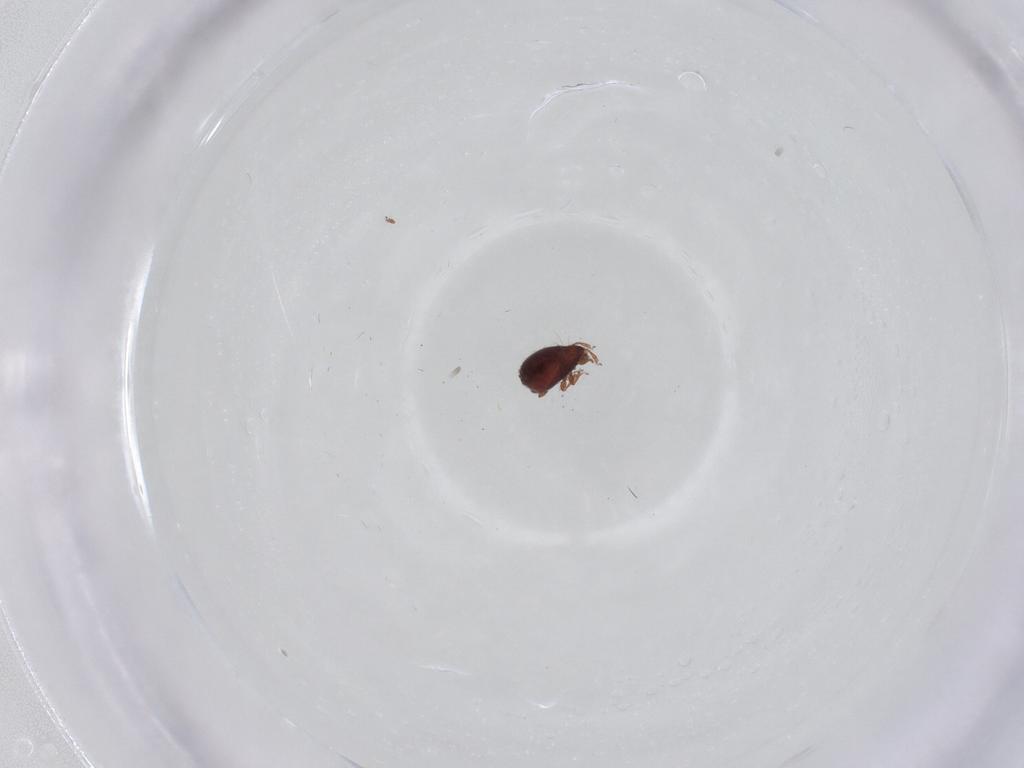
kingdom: Animalia
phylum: Arthropoda
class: Arachnida
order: Sarcoptiformes
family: Achipteriidae
